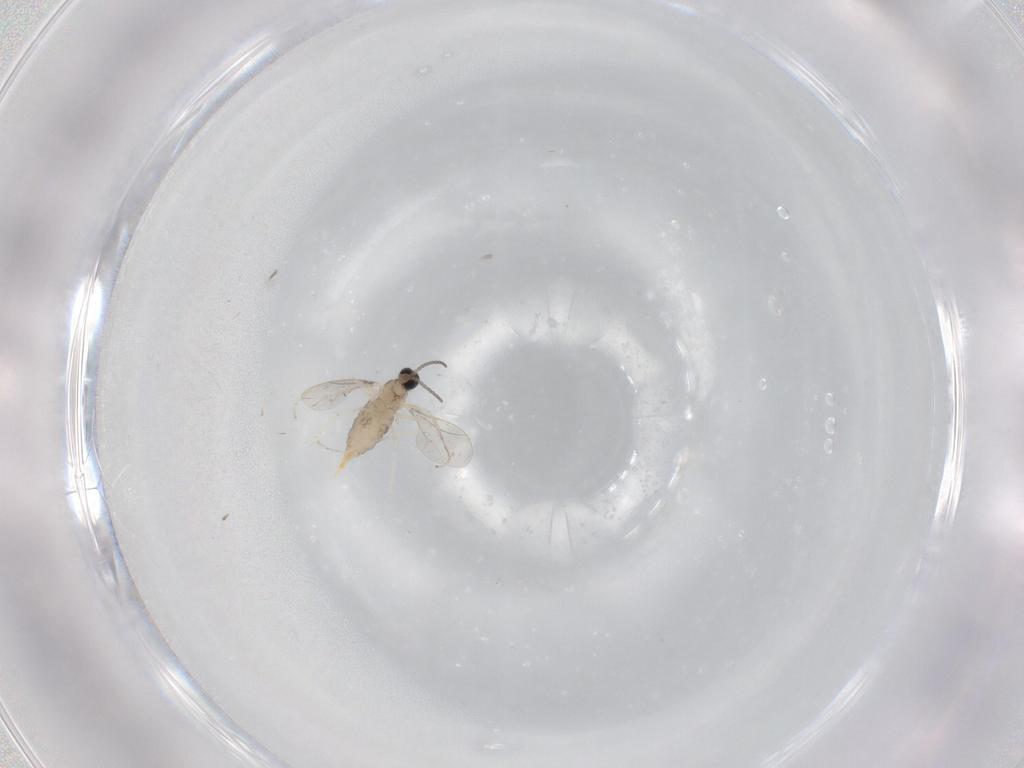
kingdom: Animalia
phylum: Arthropoda
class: Insecta
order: Diptera
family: Cecidomyiidae
